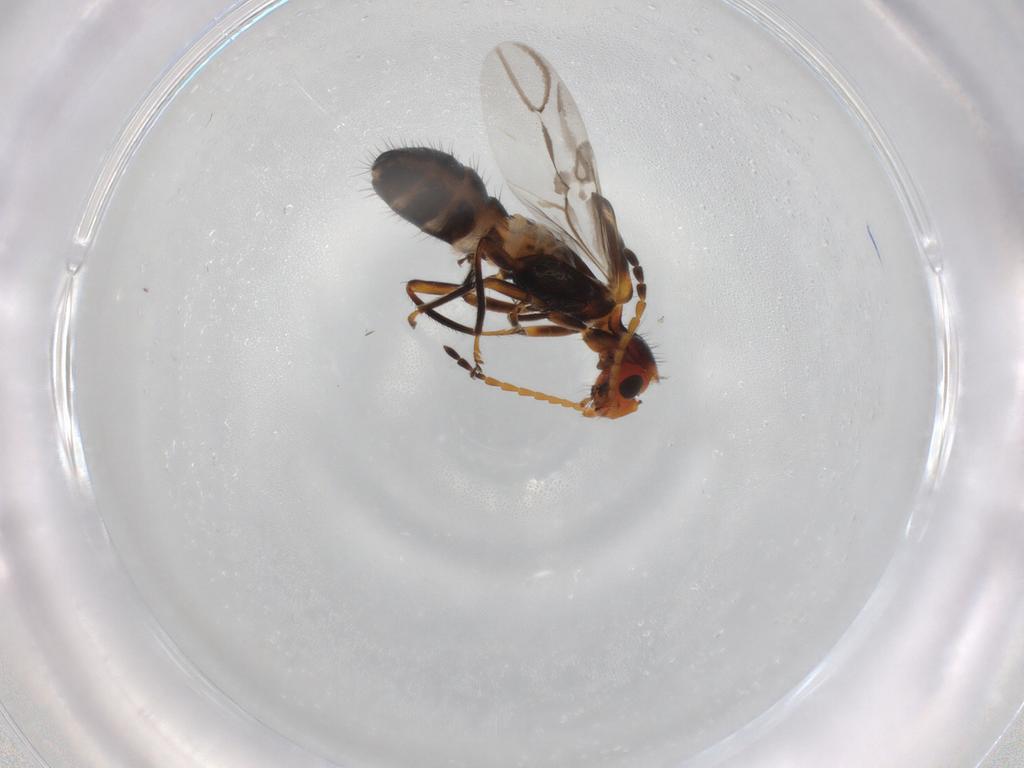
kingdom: Animalia
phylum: Arthropoda
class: Insecta
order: Coleoptera
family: Melyridae
